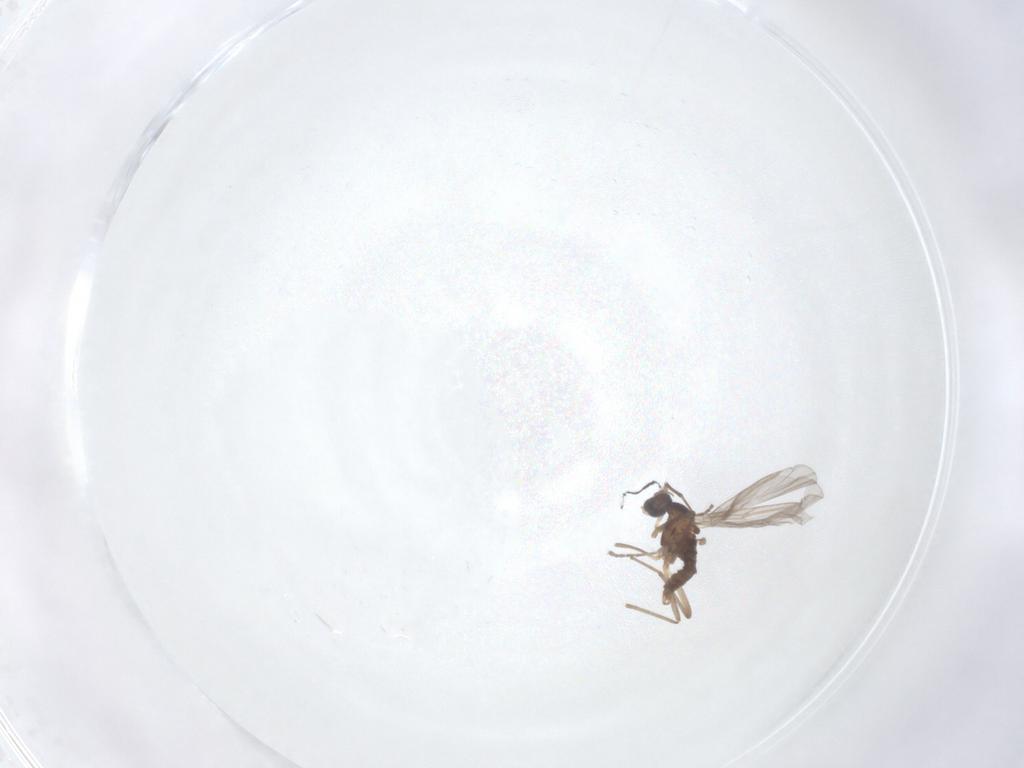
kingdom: Animalia
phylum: Arthropoda
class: Insecta
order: Diptera
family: Cecidomyiidae
